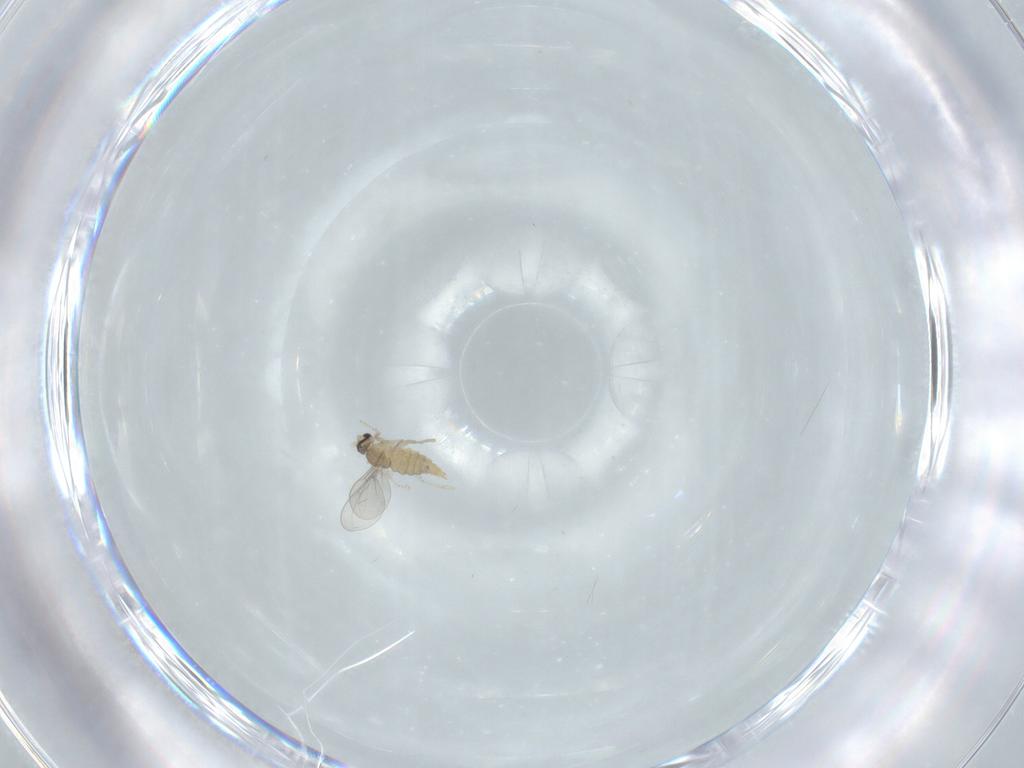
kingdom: Animalia
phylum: Arthropoda
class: Insecta
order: Diptera
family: Cecidomyiidae
